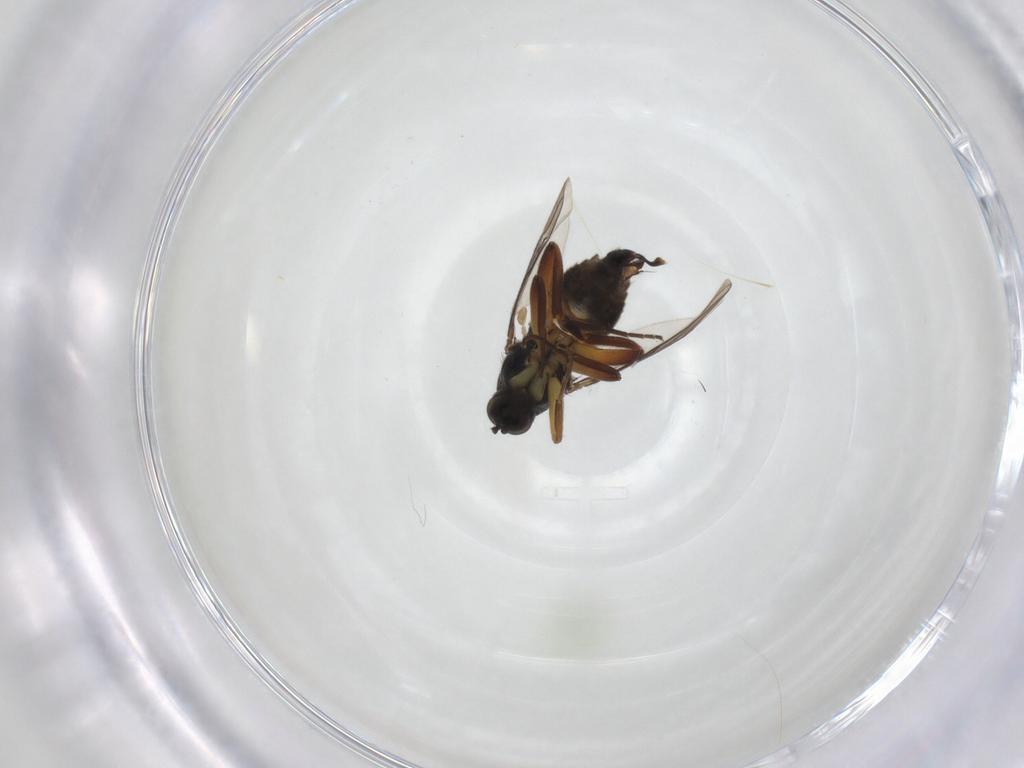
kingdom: Animalia
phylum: Arthropoda
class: Insecta
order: Diptera
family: Hybotidae
